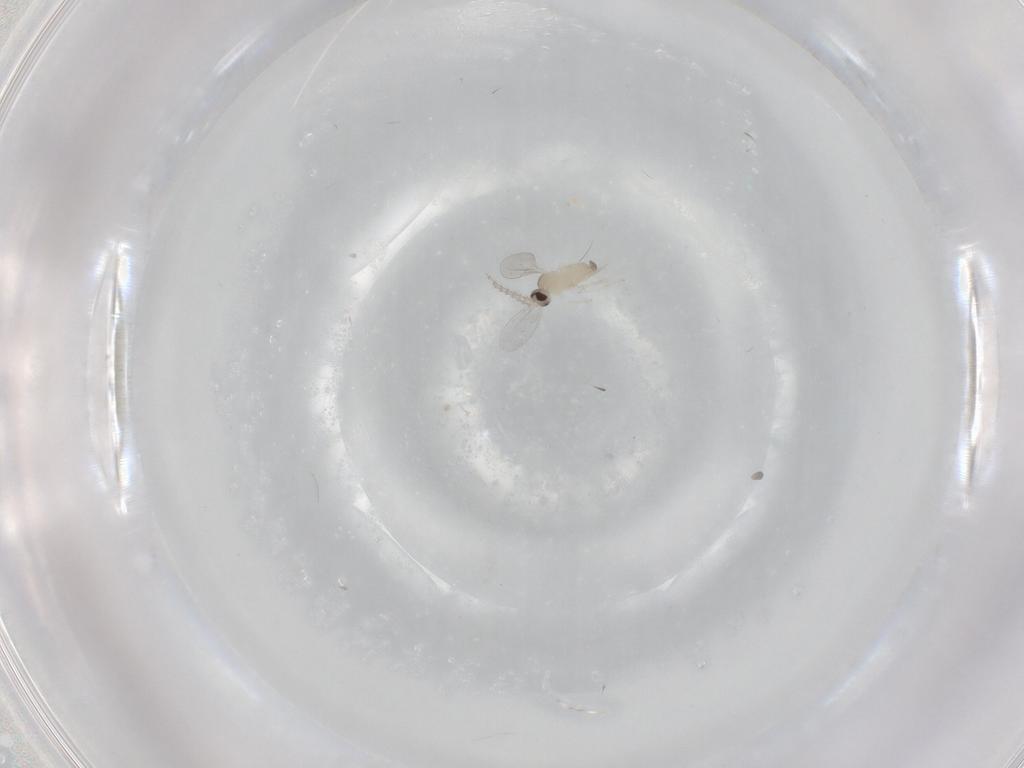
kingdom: Animalia
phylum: Arthropoda
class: Insecta
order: Diptera
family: Cecidomyiidae
